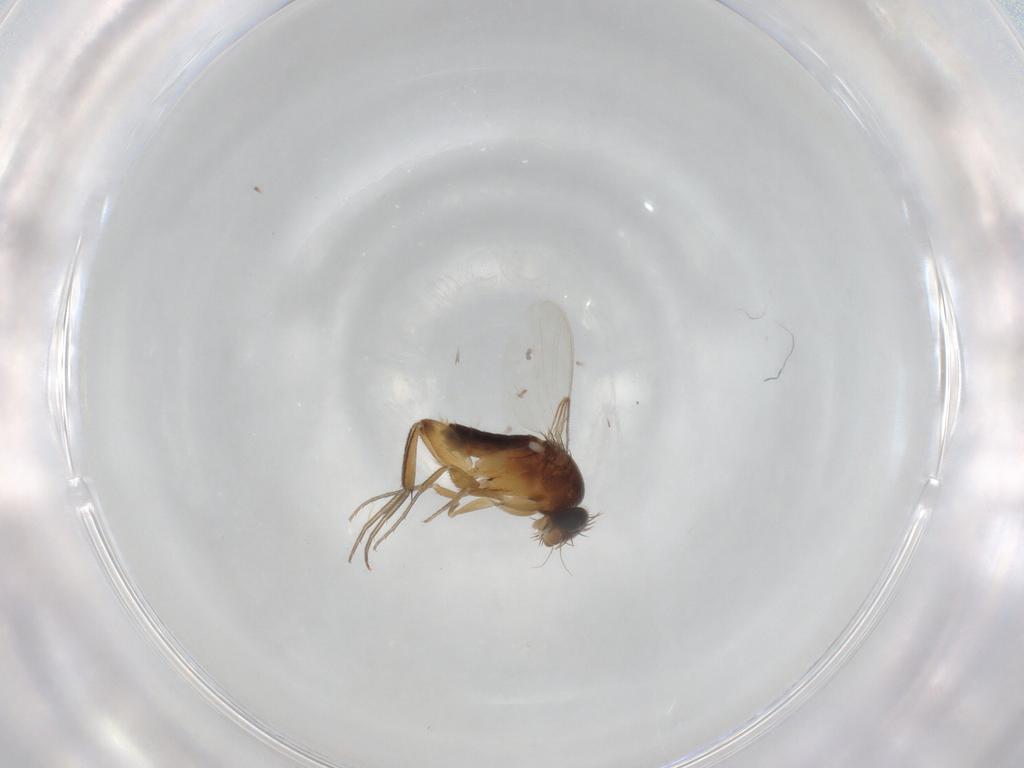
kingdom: Animalia
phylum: Arthropoda
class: Insecta
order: Diptera
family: Phoridae
